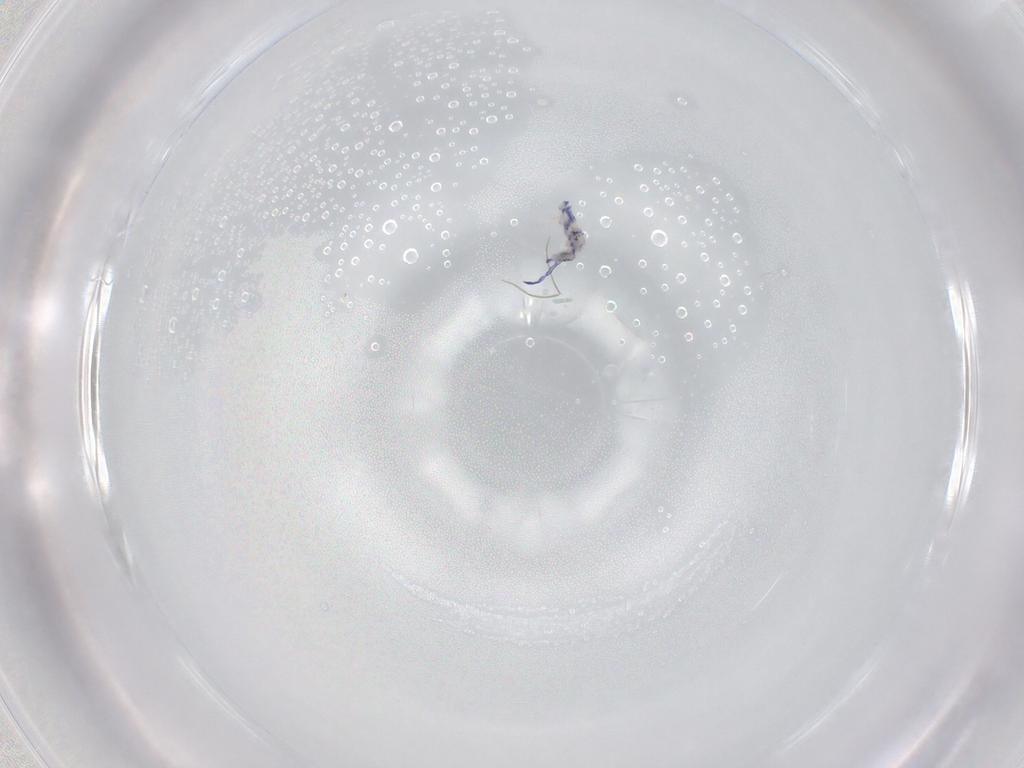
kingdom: Animalia
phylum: Arthropoda
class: Collembola
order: Entomobryomorpha
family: Entomobryidae
